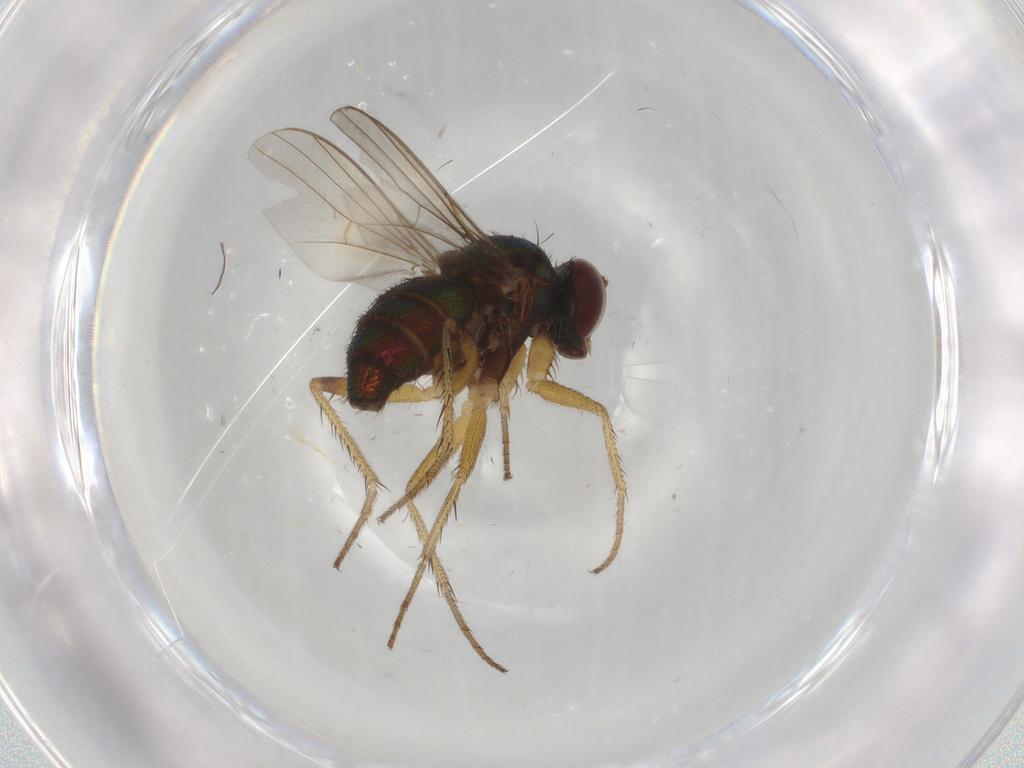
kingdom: Animalia
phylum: Arthropoda
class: Insecta
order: Diptera
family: Dolichopodidae
